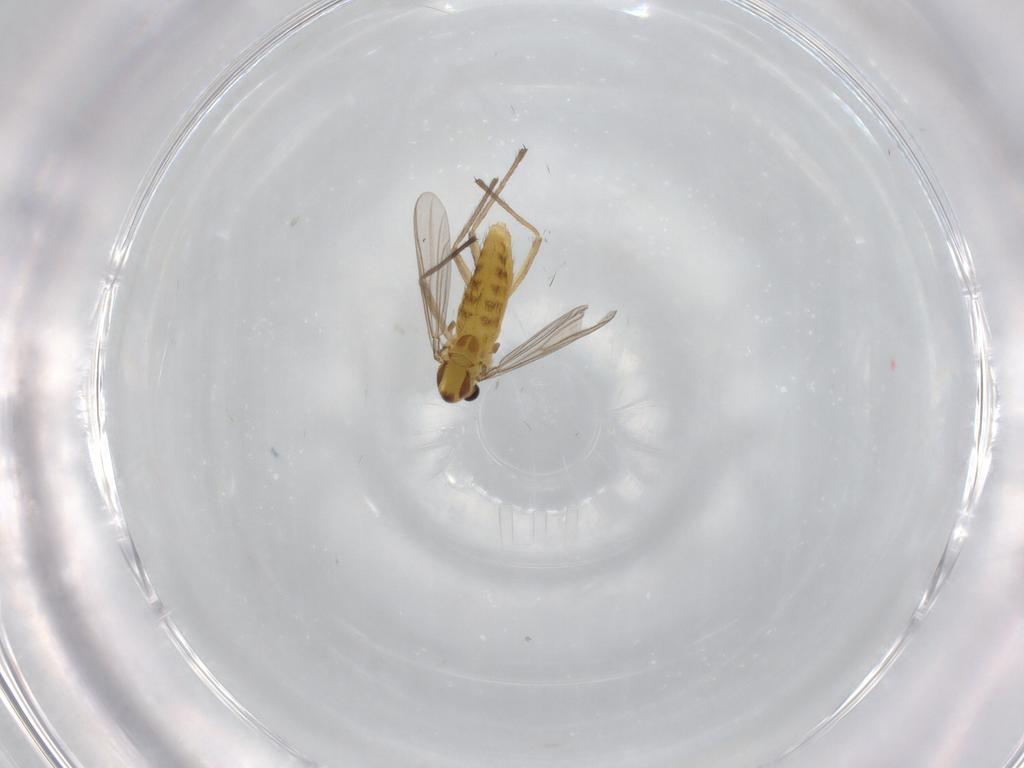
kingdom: Animalia
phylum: Arthropoda
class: Insecta
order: Diptera
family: Chironomidae
